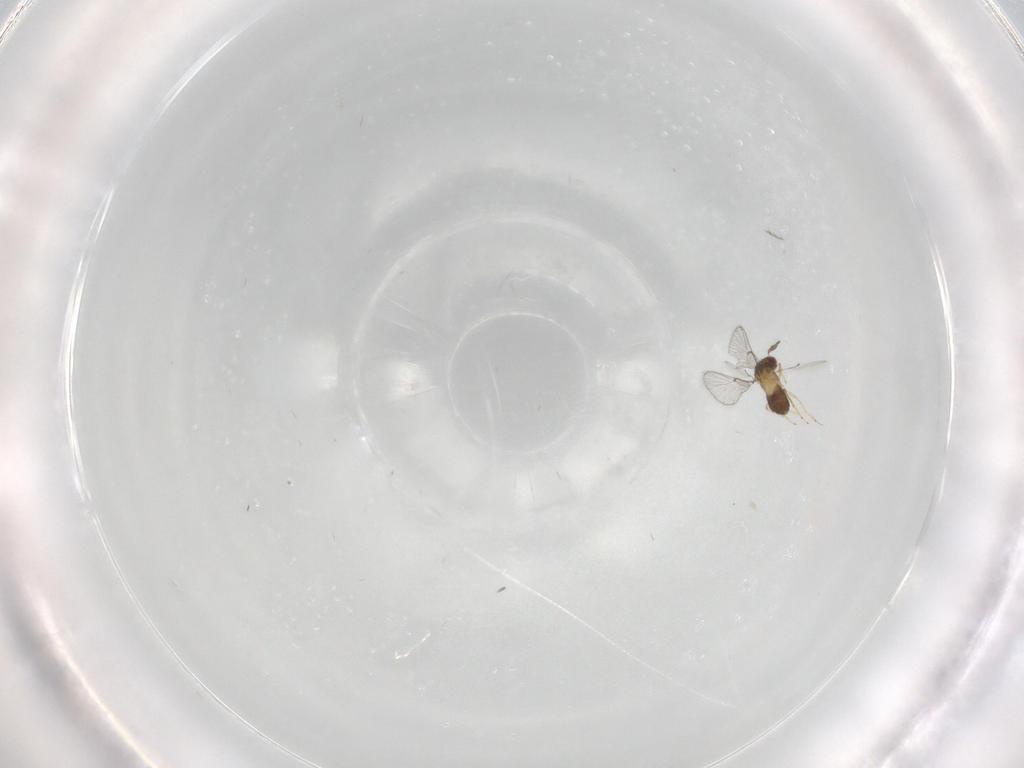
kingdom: Animalia
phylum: Arthropoda
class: Insecta
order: Hymenoptera
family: Trichogrammatidae
